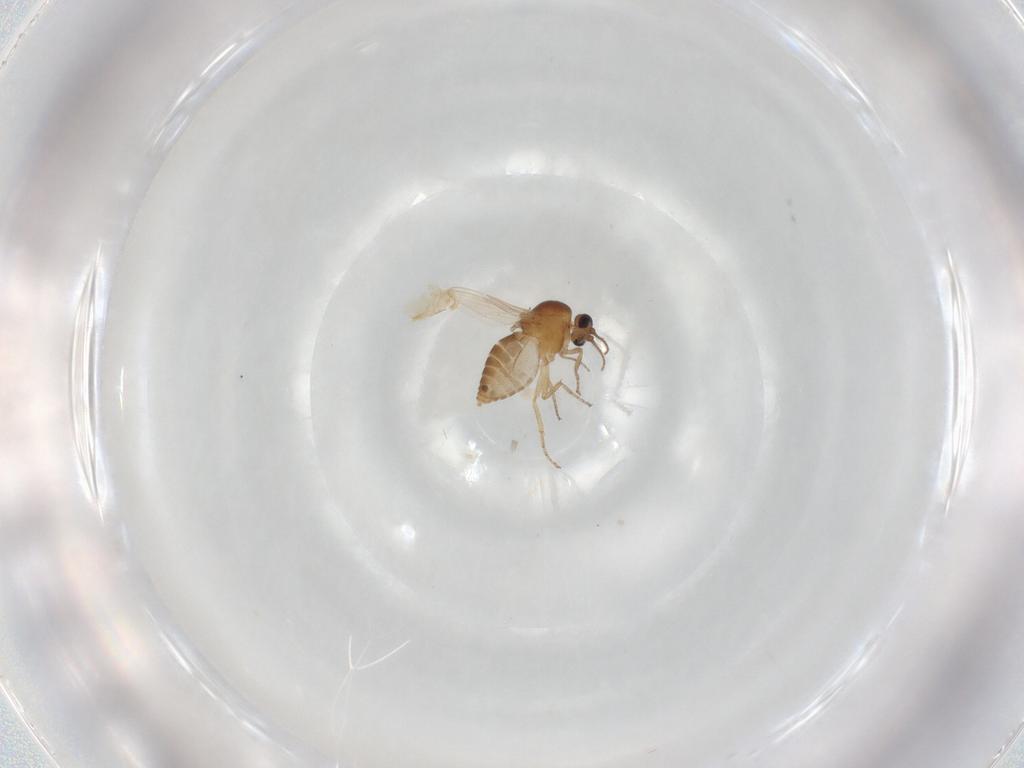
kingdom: Animalia
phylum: Arthropoda
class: Insecta
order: Diptera
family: Ceratopogonidae
